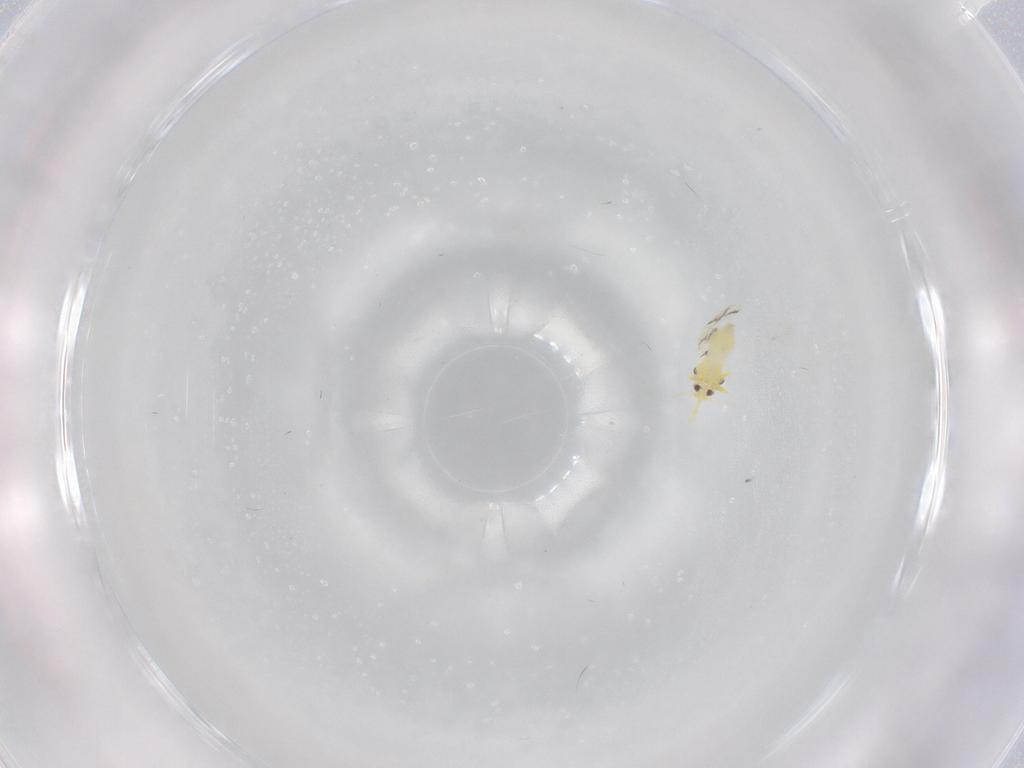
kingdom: Animalia
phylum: Arthropoda
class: Insecta
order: Hemiptera
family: Aleyrodidae
